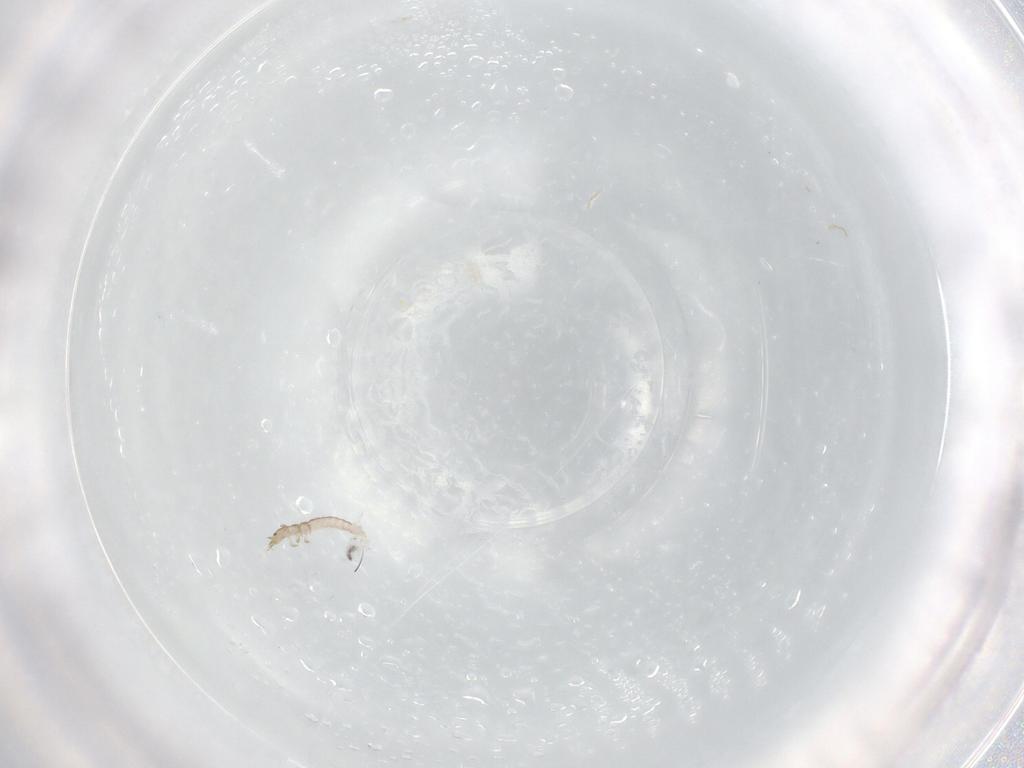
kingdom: Animalia
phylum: Arthropoda
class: Insecta
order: Neuroptera
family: Mantispidae
